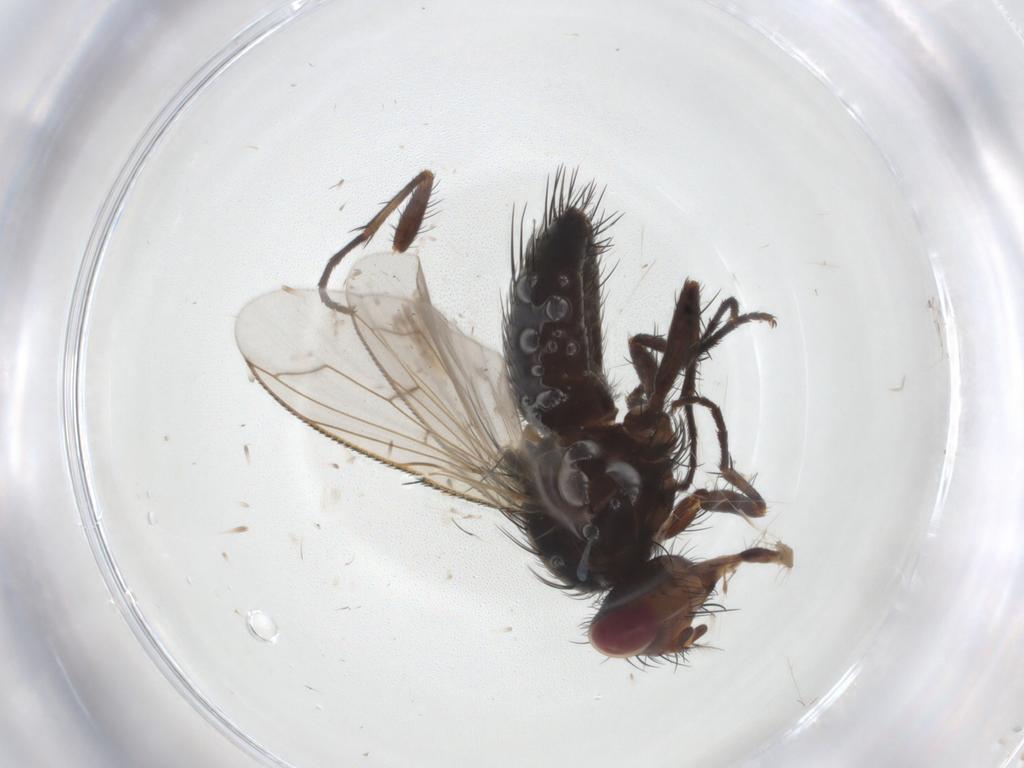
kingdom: Animalia
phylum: Arthropoda
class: Insecta
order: Diptera
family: Tachinidae
